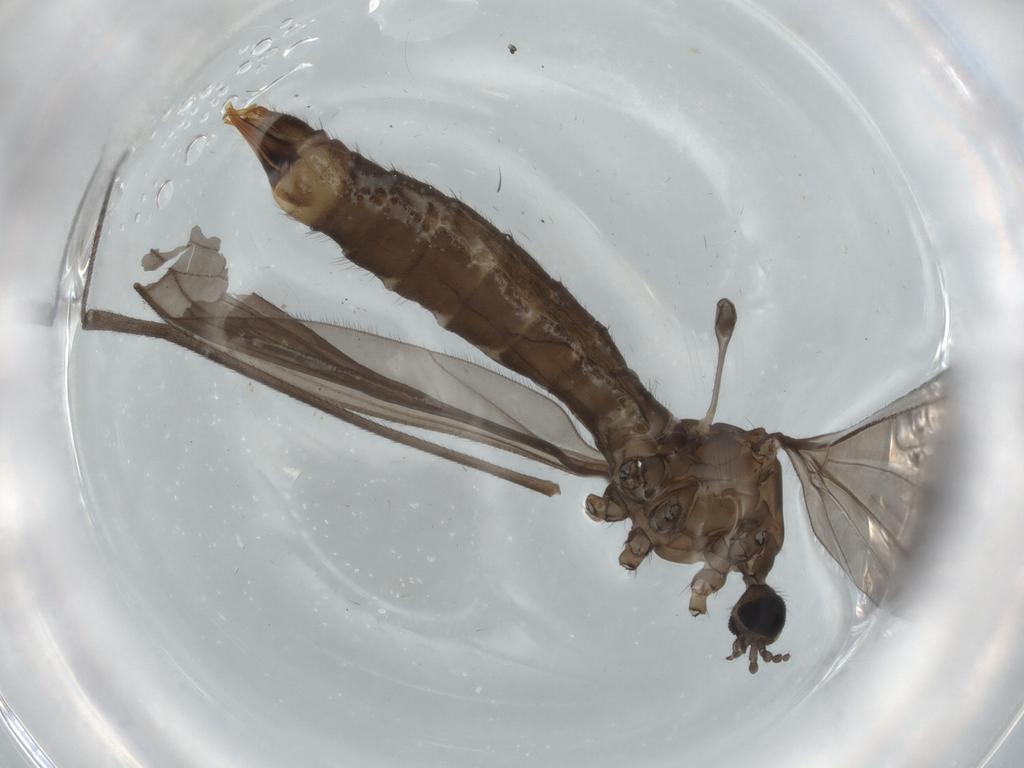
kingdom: Animalia
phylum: Arthropoda
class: Insecta
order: Diptera
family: Limoniidae
